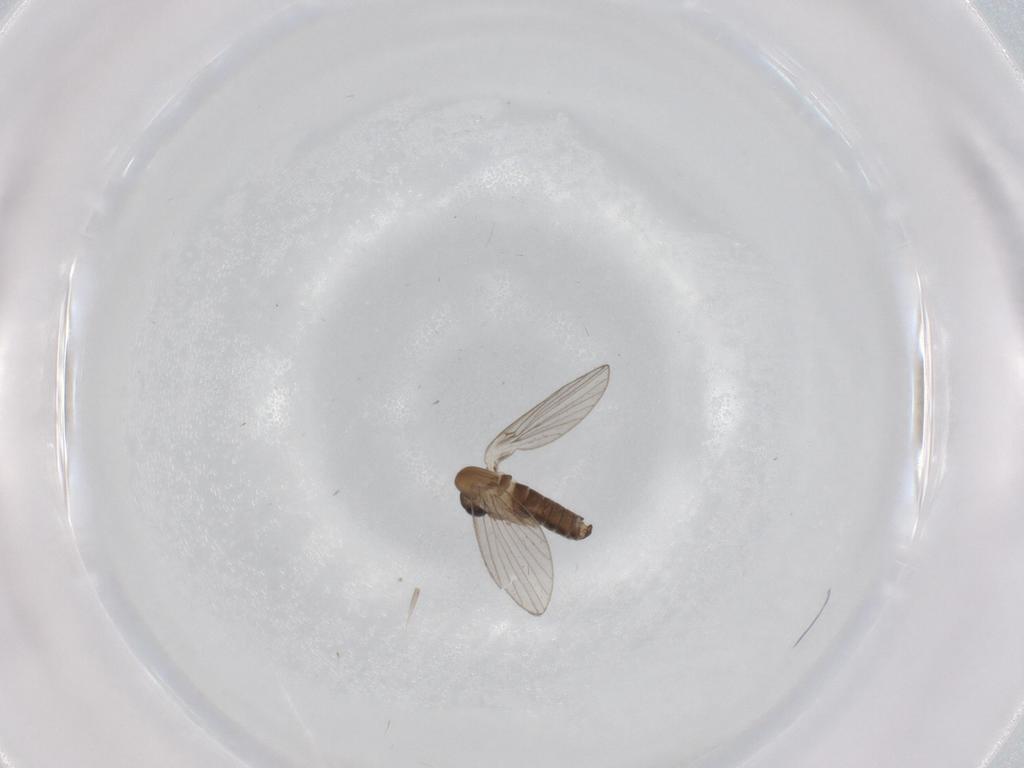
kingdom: Animalia
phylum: Arthropoda
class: Insecta
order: Diptera
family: Psychodidae
